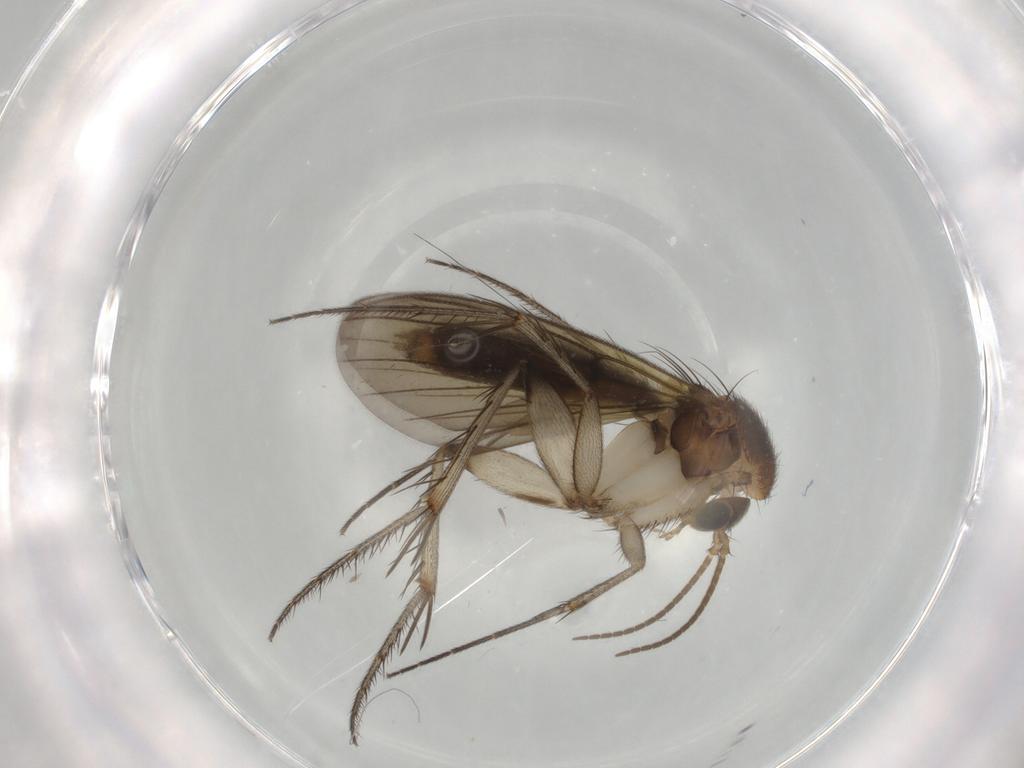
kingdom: Animalia
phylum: Arthropoda
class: Insecta
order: Diptera
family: Mycetophilidae
